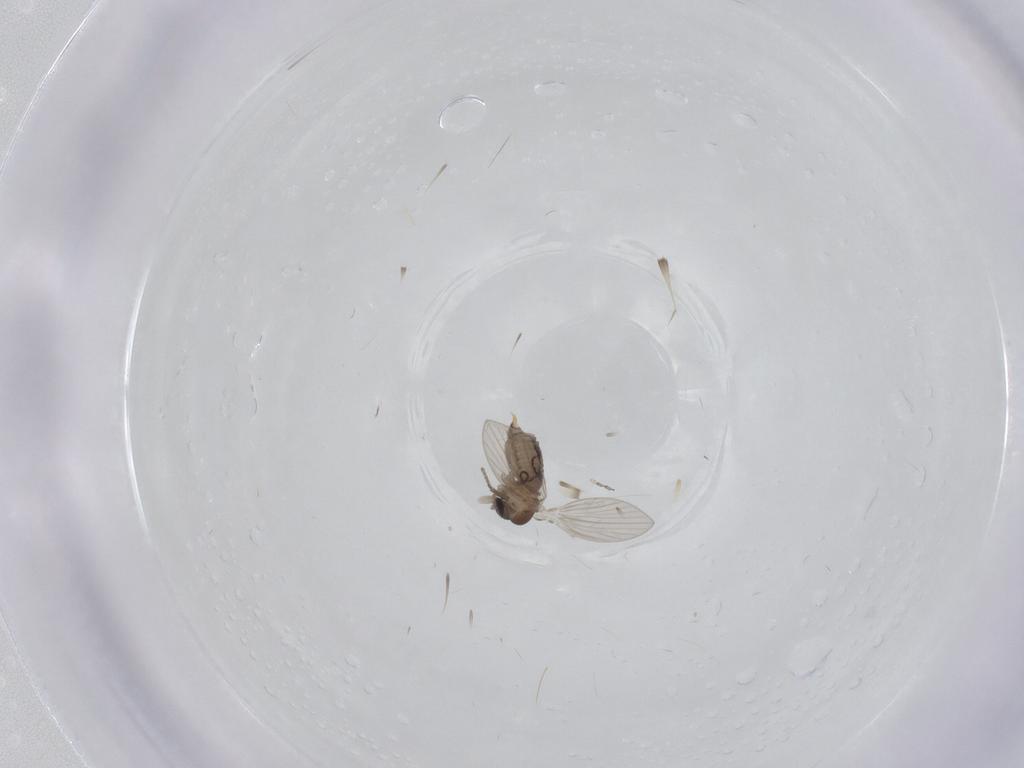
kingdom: Animalia
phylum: Arthropoda
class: Insecta
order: Diptera
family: Psychodidae
